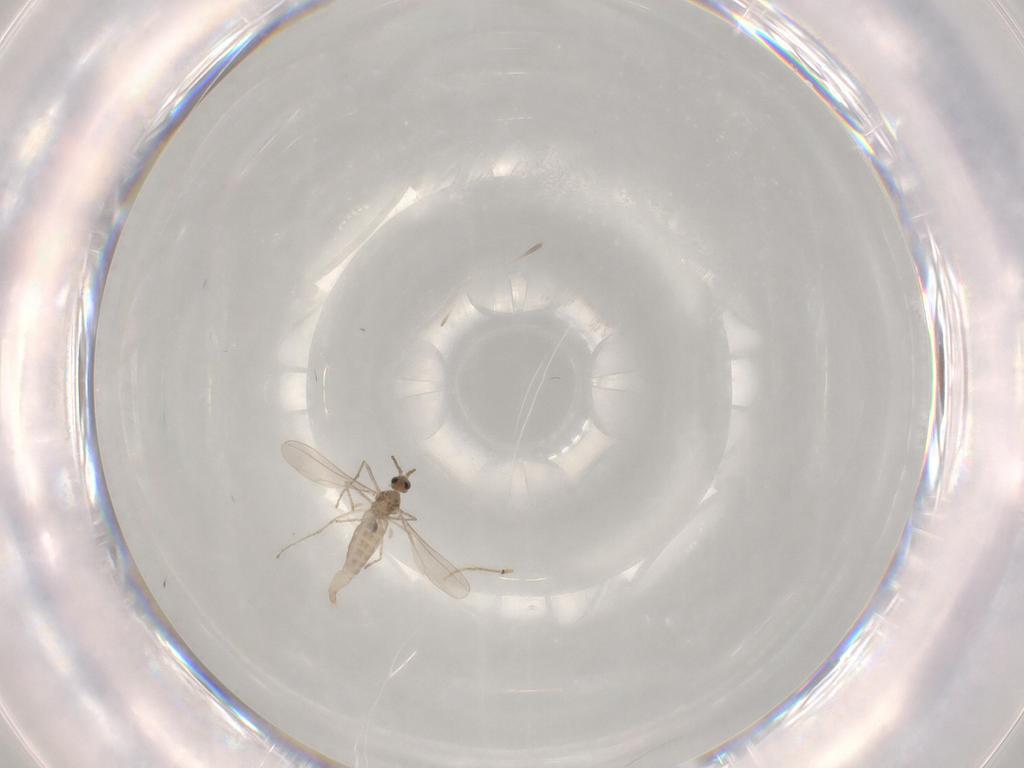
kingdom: Animalia
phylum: Arthropoda
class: Insecta
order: Diptera
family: Chironomidae
